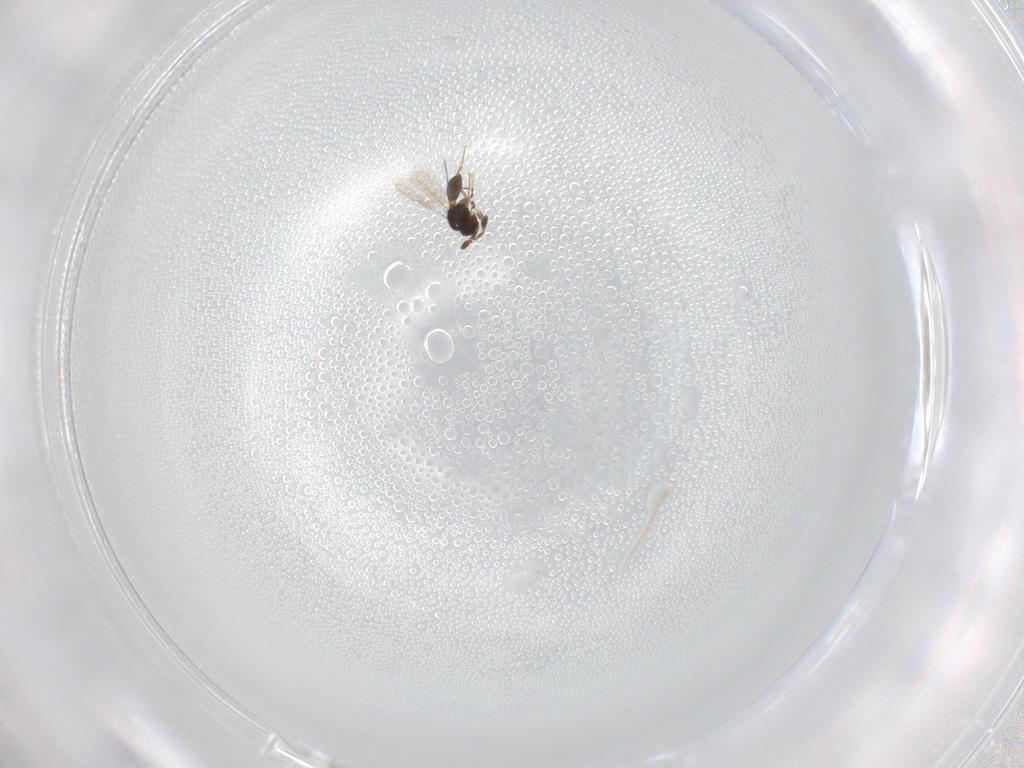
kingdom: Animalia
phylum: Arthropoda
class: Insecta
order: Hymenoptera
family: Scelionidae
